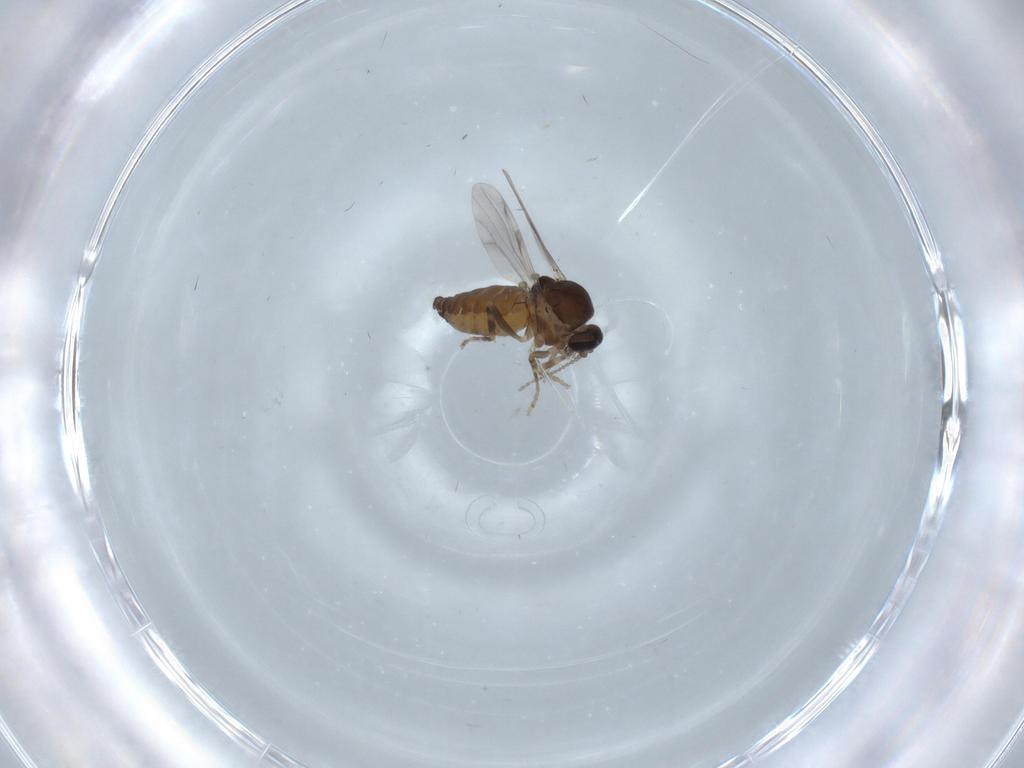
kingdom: Animalia
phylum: Arthropoda
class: Insecta
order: Diptera
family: Ceratopogonidae
